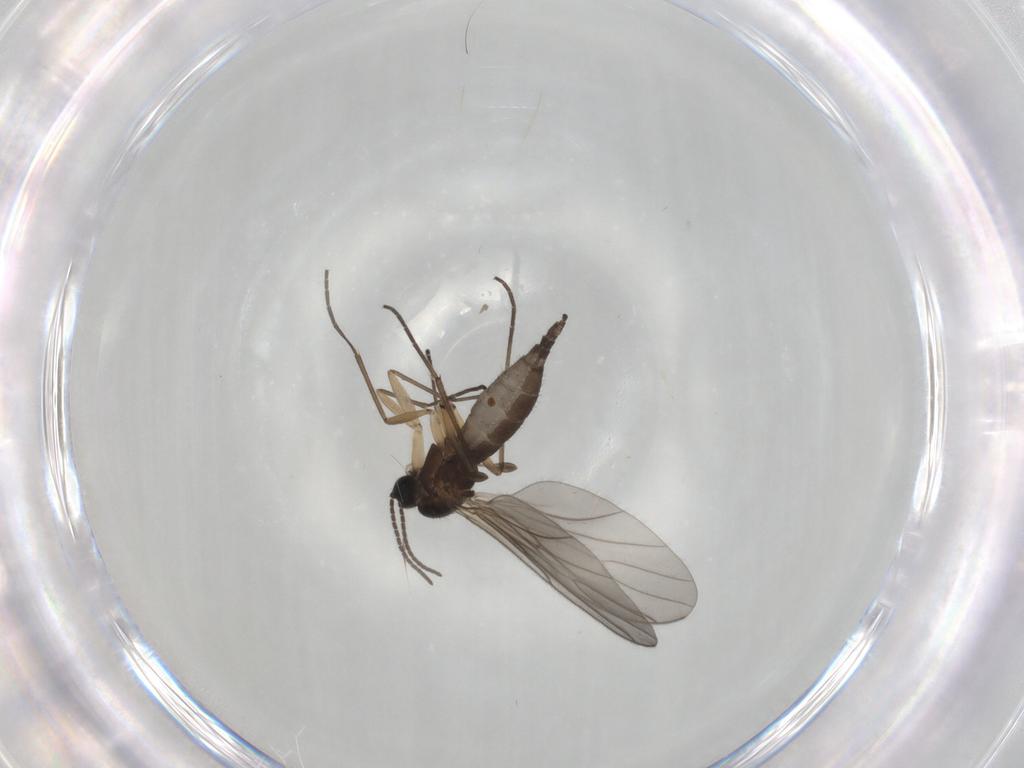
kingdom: Animalia
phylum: Arthropoda
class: Insecta
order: Diptera
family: Sciaridae
